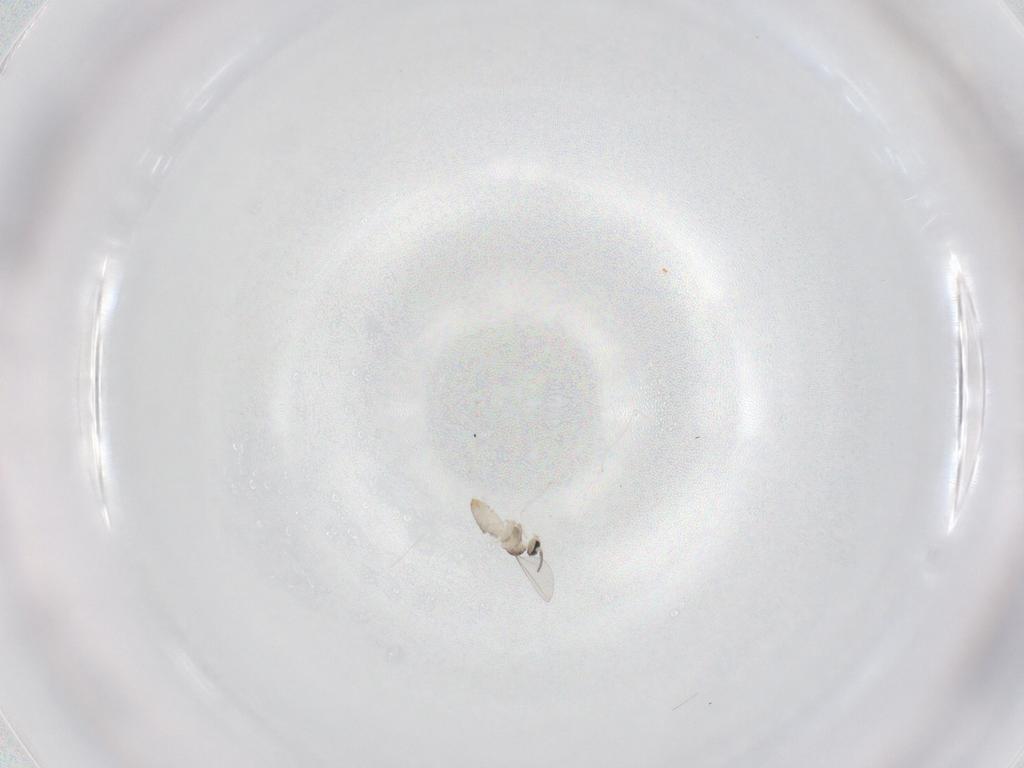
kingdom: Animalia
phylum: Arthropoda
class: Insecta
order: Diptera
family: Cecidomyiidae
